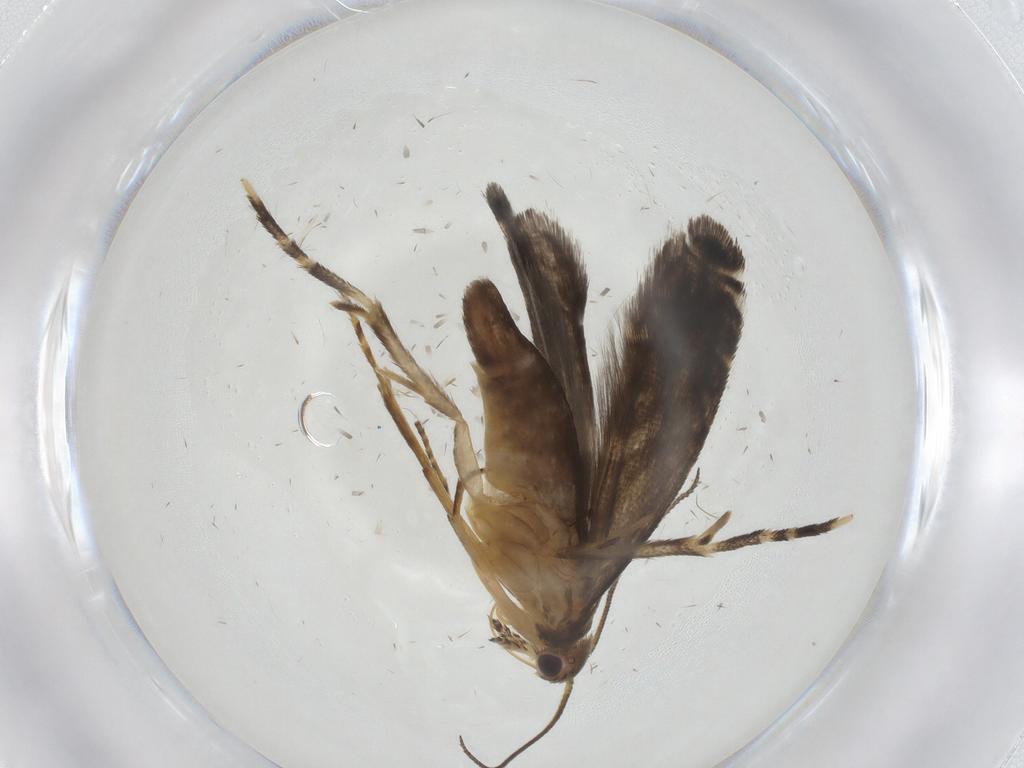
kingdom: Animalia
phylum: Arthropoda
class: Insecta
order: Lepidoptera
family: Glyphipterigidae
